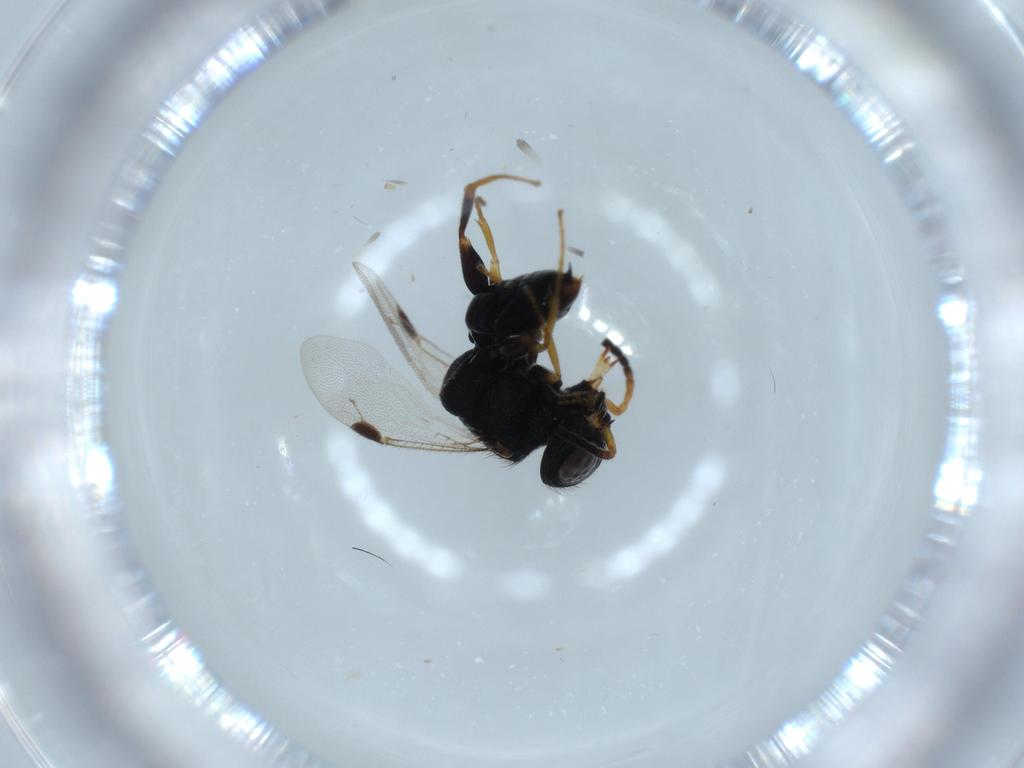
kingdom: Animalia
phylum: Arthropoda
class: Insecta
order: Hymenoptera
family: Dryinidae
